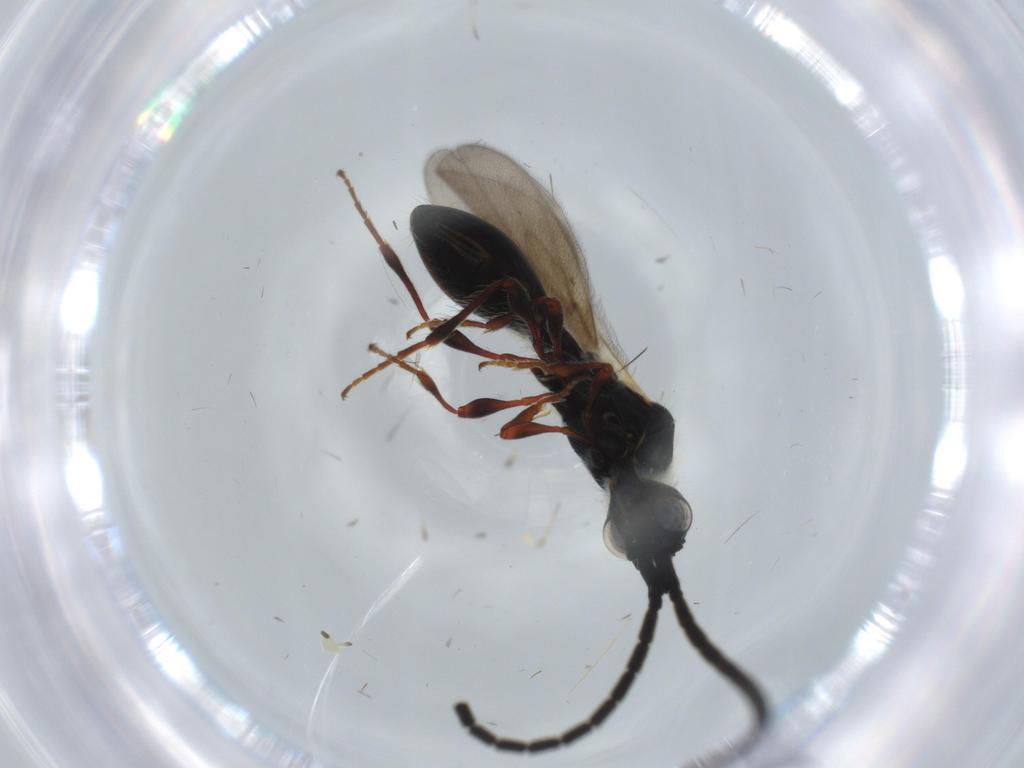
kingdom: Animalia
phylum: Arthropoda
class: Insecta
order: Hymenoptera
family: Diapriidae
